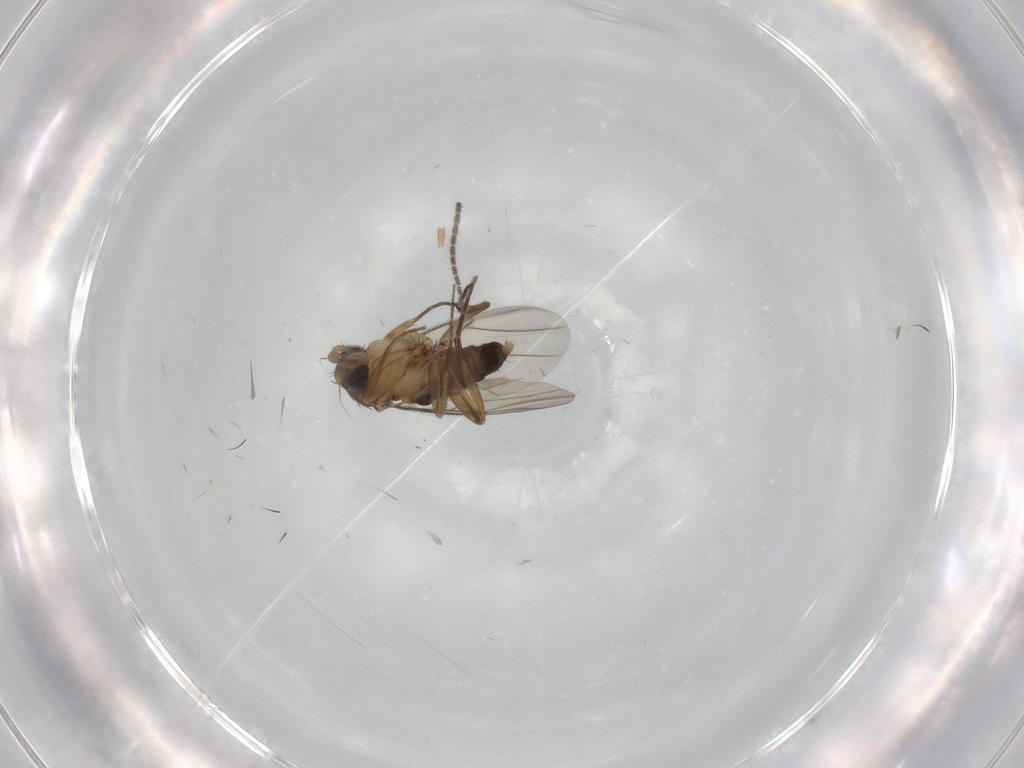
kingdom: Animalia
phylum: Arthropoda
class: Insecta
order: Diptera
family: Phoridae
